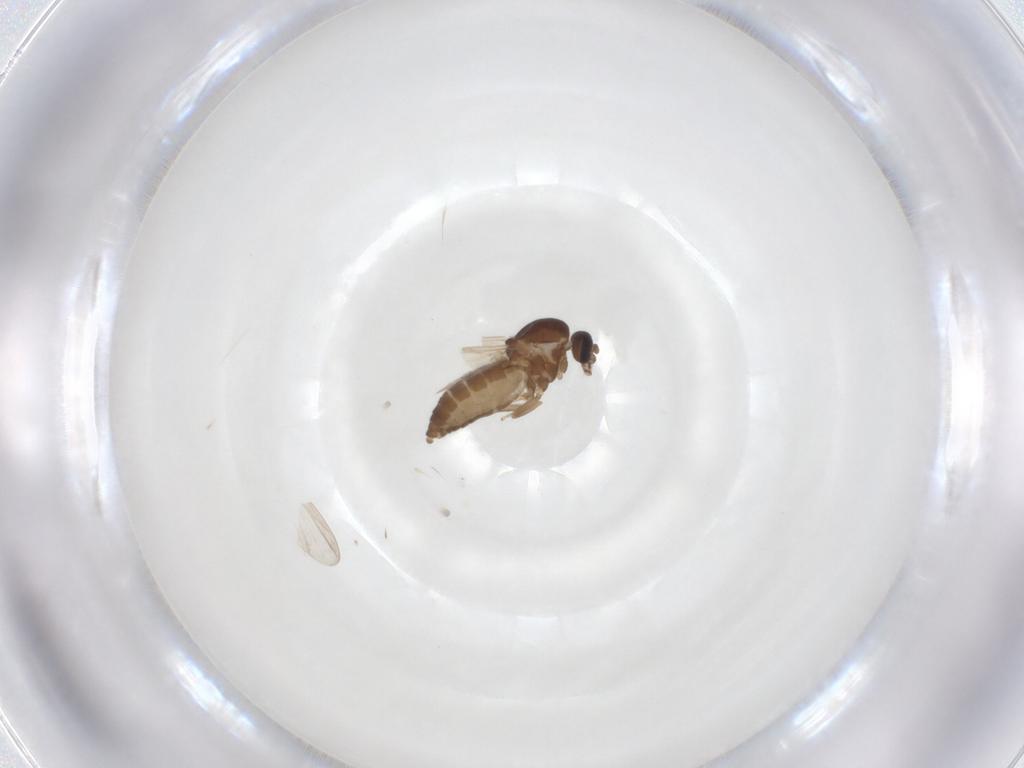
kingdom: Animalia
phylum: Arthropoda
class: Insecta
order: Diptera
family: Ceratopogonidae
